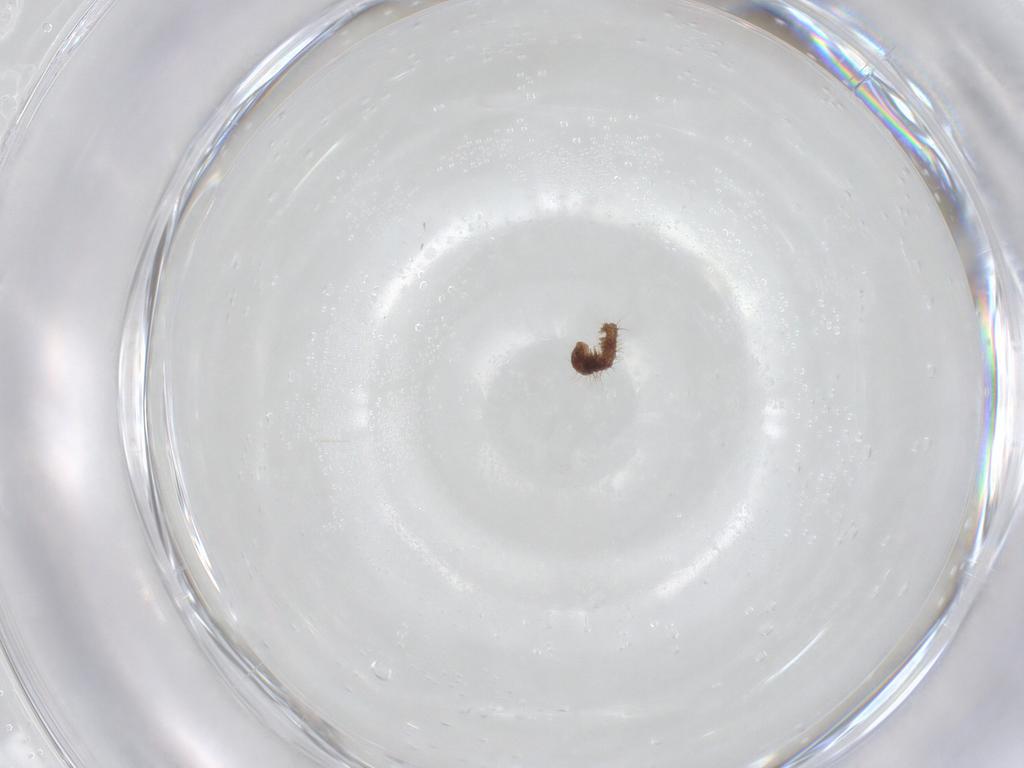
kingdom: Animalia
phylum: Arthropoda
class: Insecta
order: Lepidoptera
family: Erebidae
